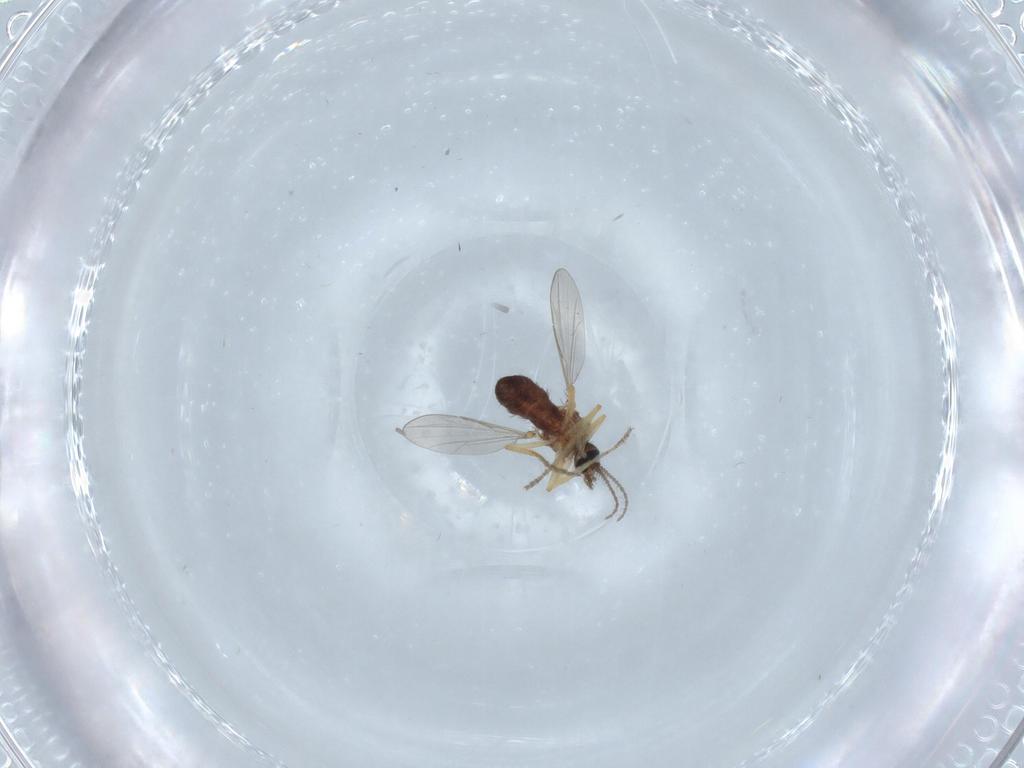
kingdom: Animalia
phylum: Arthropoda
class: Insecta
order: Diptera
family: Ceratopogonidae
